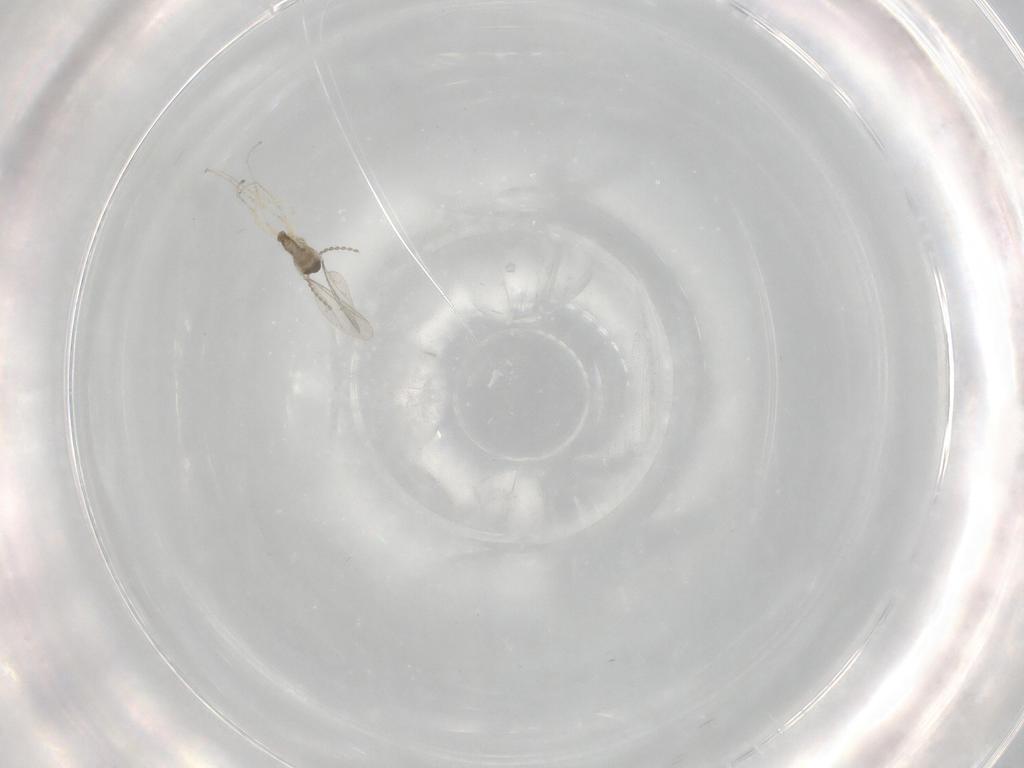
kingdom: Animalia
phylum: Arthropoda
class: Insecta
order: Diptera
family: Cecidomyiidae
